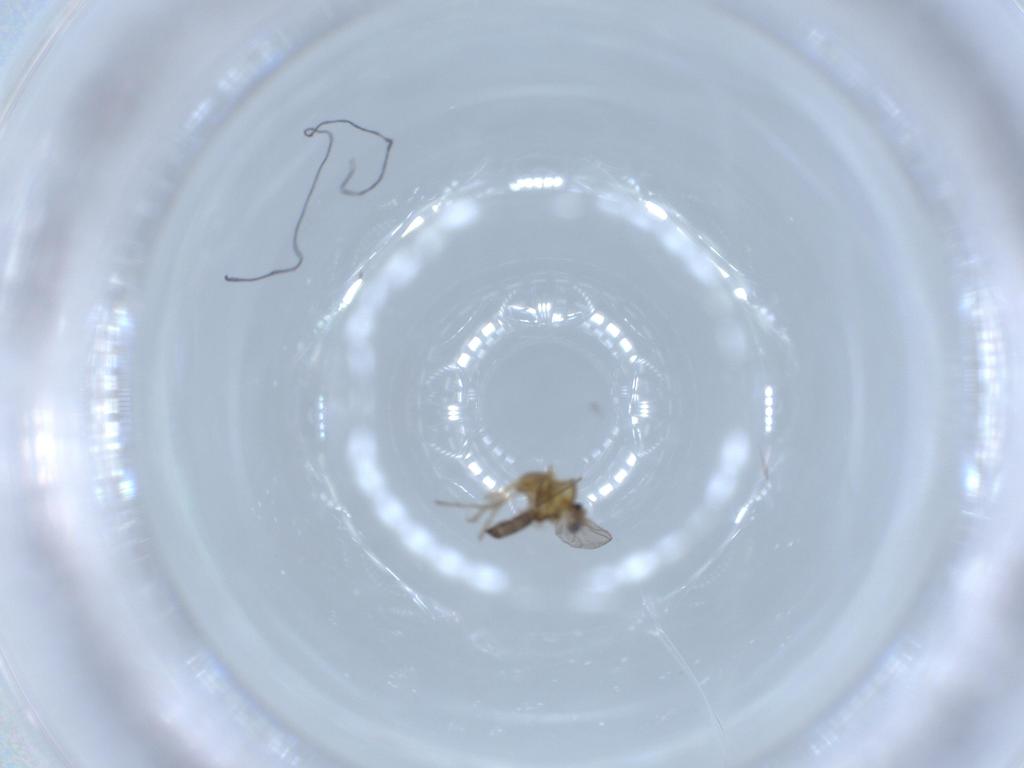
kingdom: Animalia
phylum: Arthropoda
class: Insecta
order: Diptera
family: Chironomidae
